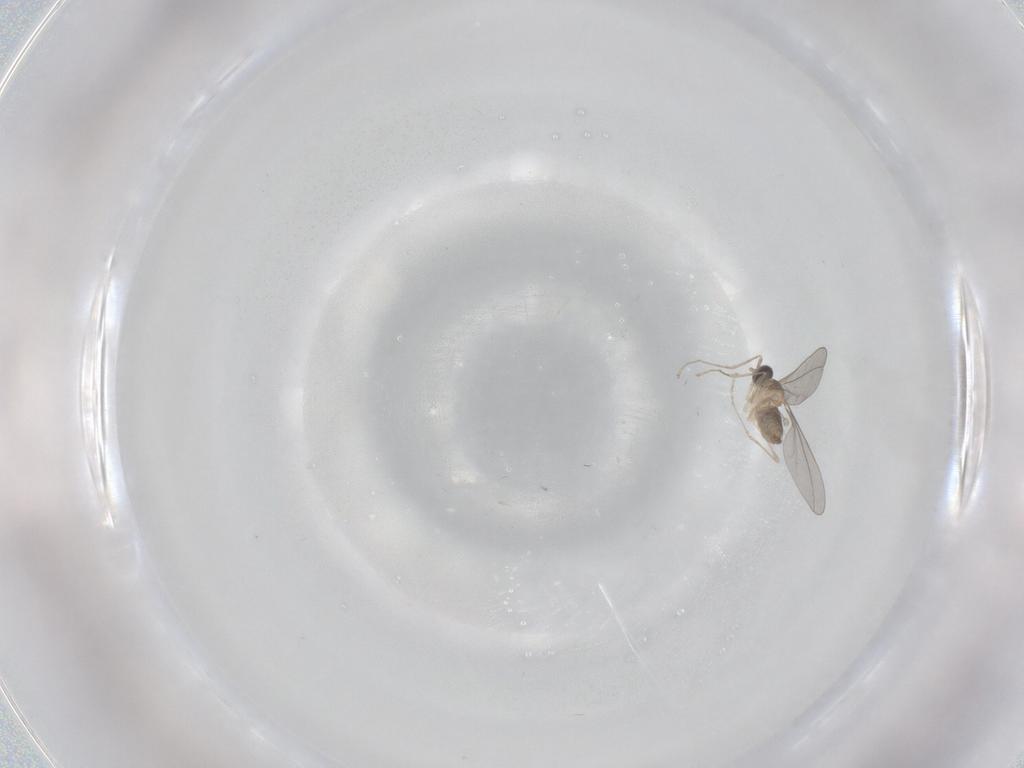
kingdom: Animalia
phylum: Arthropoda
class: Insecta
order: Diptera
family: Cecidomyiidae
